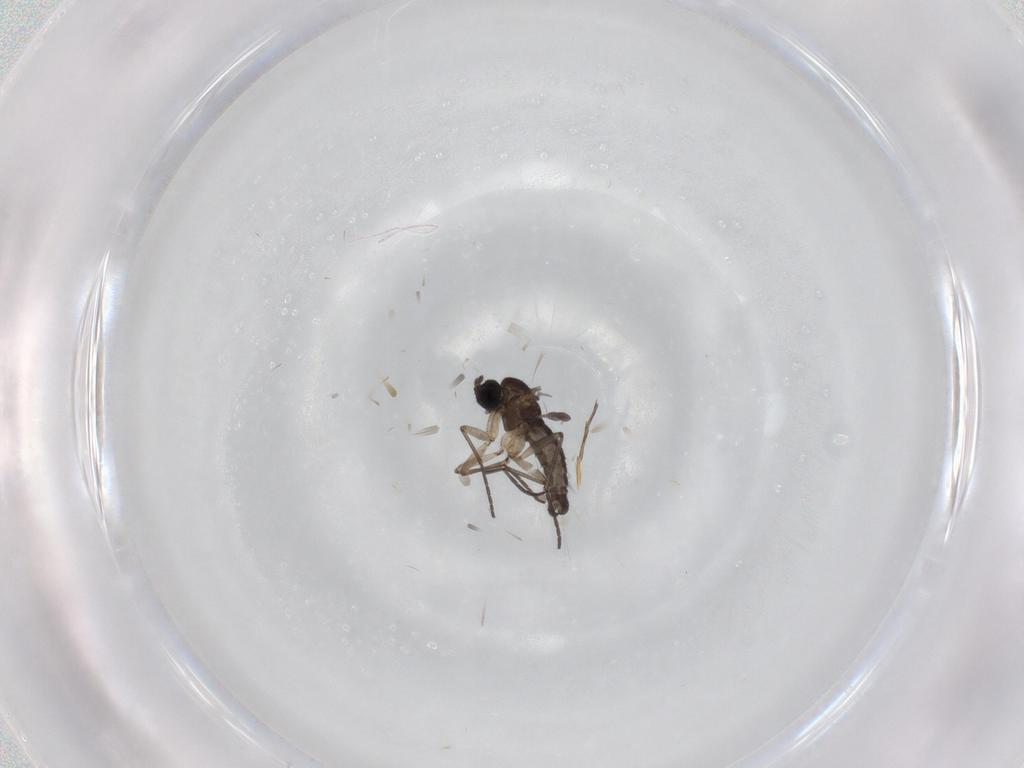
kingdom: Animalia
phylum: Arthropoda
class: Insecta
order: Diptera
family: Sciaridae
